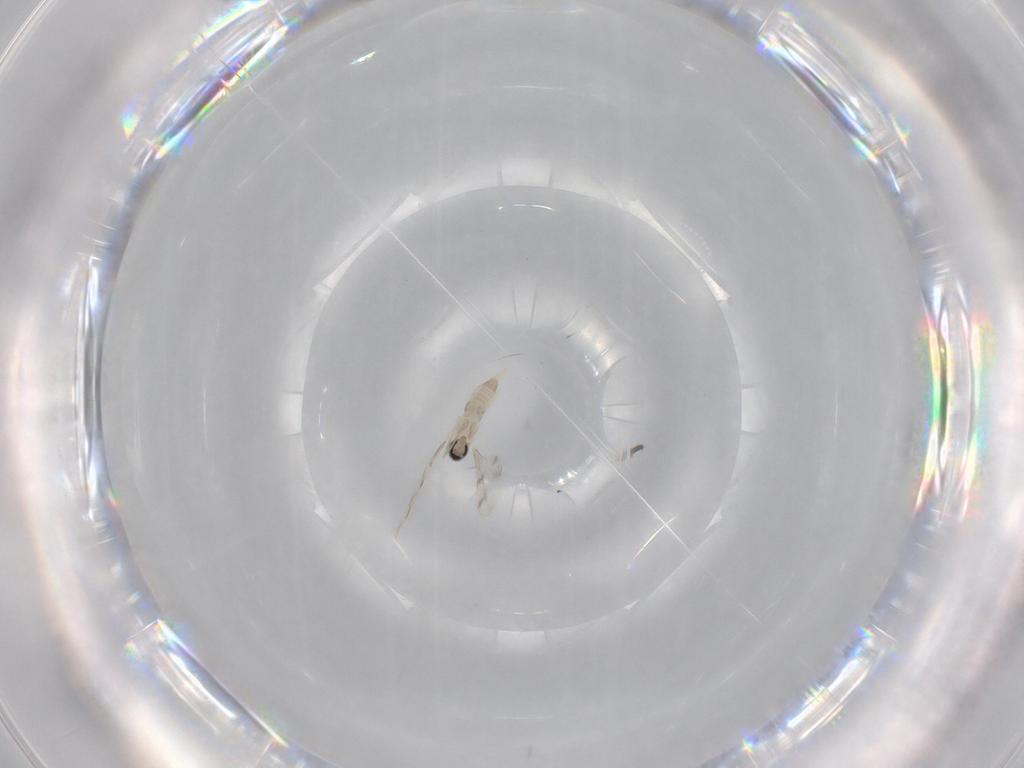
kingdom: Animalia
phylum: Arthropoda
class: Insecta
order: Diptera
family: Cecidomyiidae
